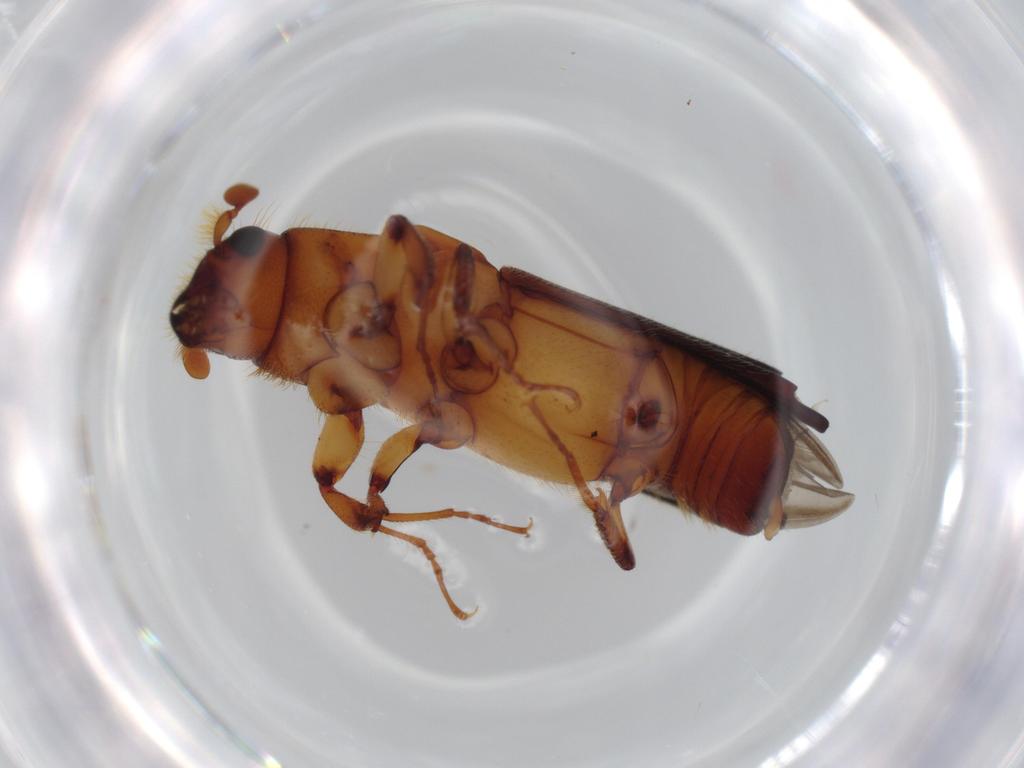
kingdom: Animalia
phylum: Arthropoda
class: Insecta
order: Coleoptera
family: Curculionidae
